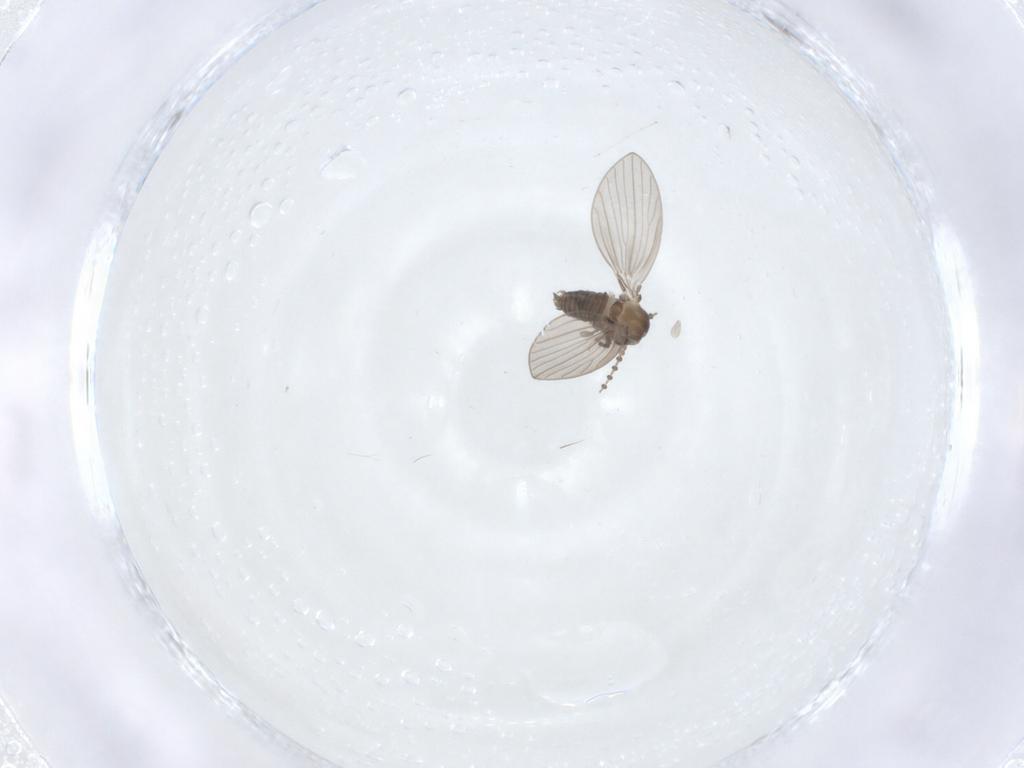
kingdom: Animalia
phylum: Arthropoda
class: Insecta
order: Diptera
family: Psychodidae
